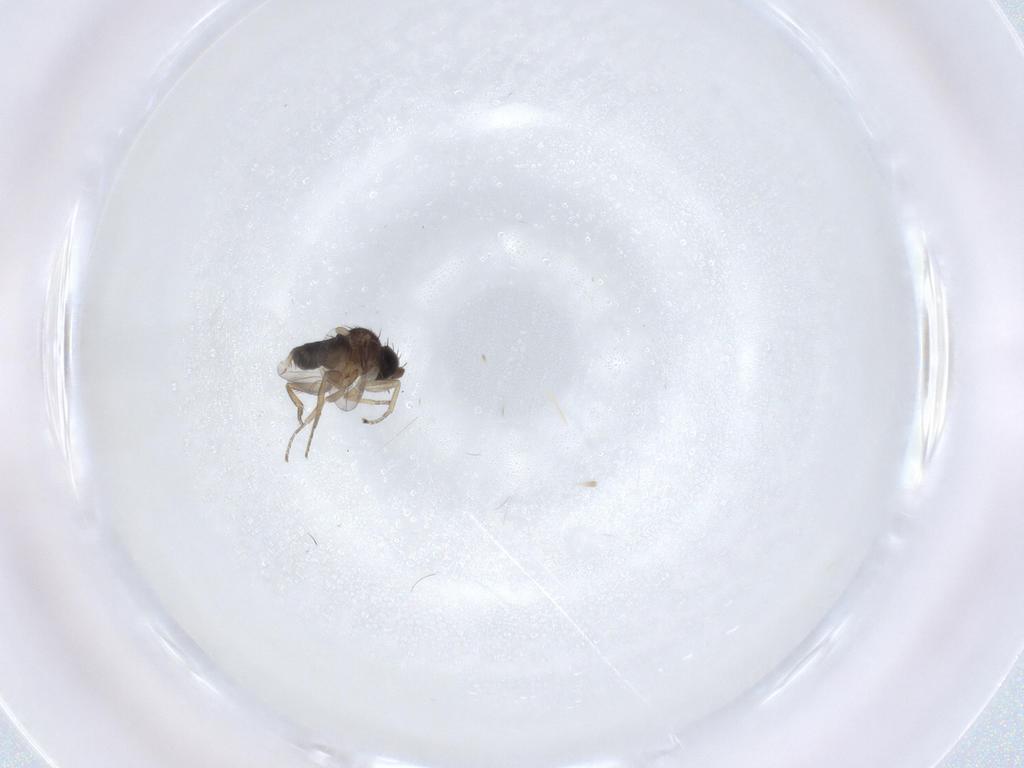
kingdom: Animalia
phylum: Arthropoda
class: Insecta
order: Diptera
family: Phoridae
